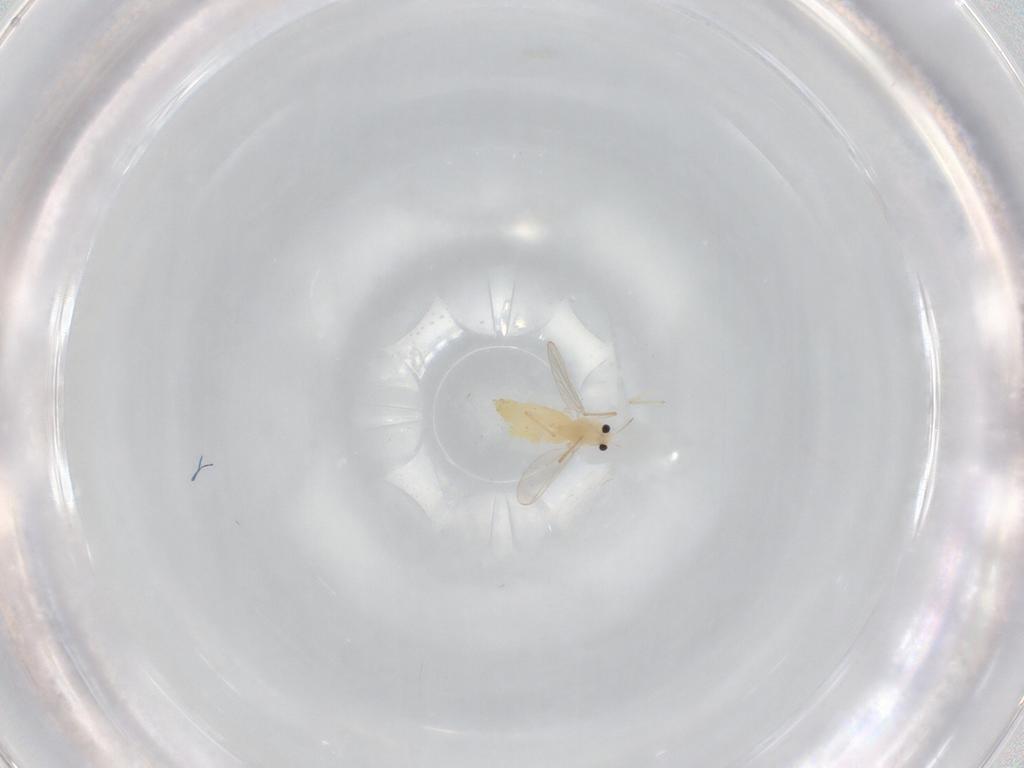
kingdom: Animalia
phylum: Arthropoda
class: Insecta
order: Diptera
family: Chironomidae
